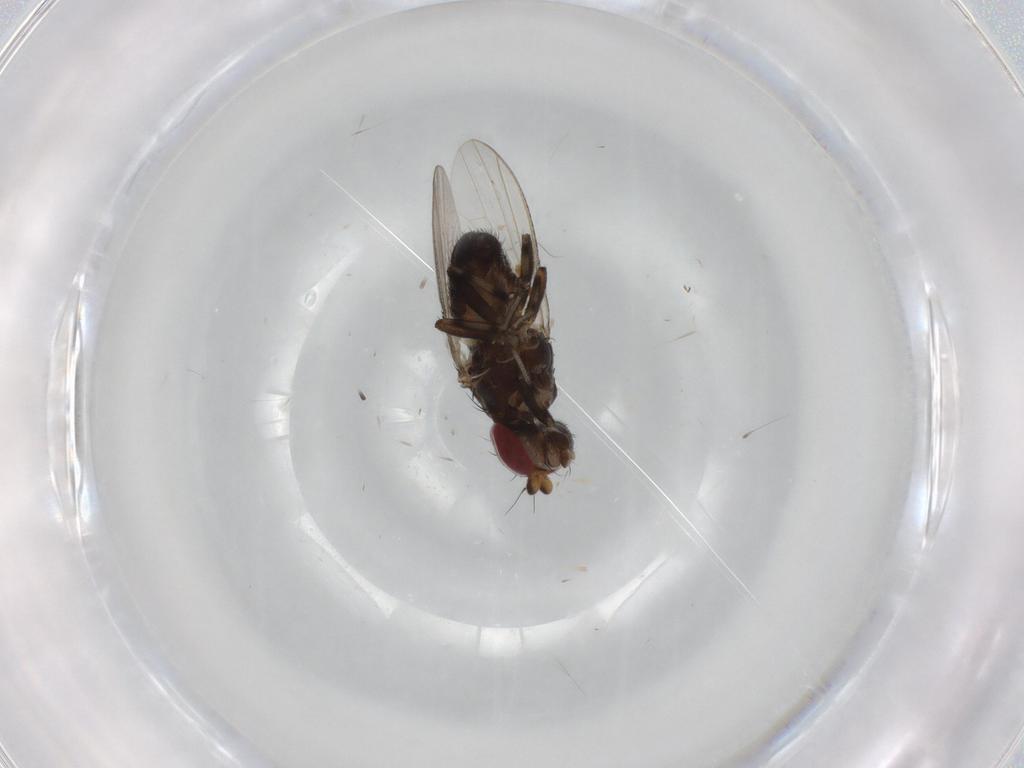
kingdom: Animalia
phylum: Arthropoda
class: Insecta
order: Diptera
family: Heleomyzidae
